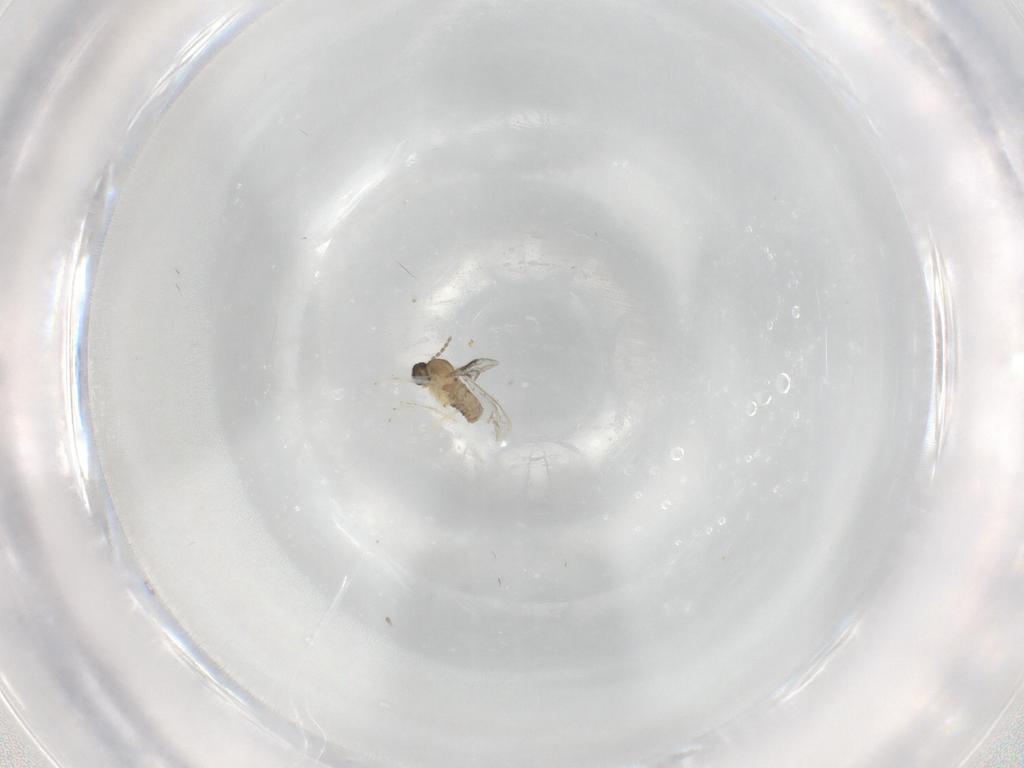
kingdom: Animalia
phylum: Arthropoda
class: Insecta
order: Diptera
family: Cecidomyiidae
